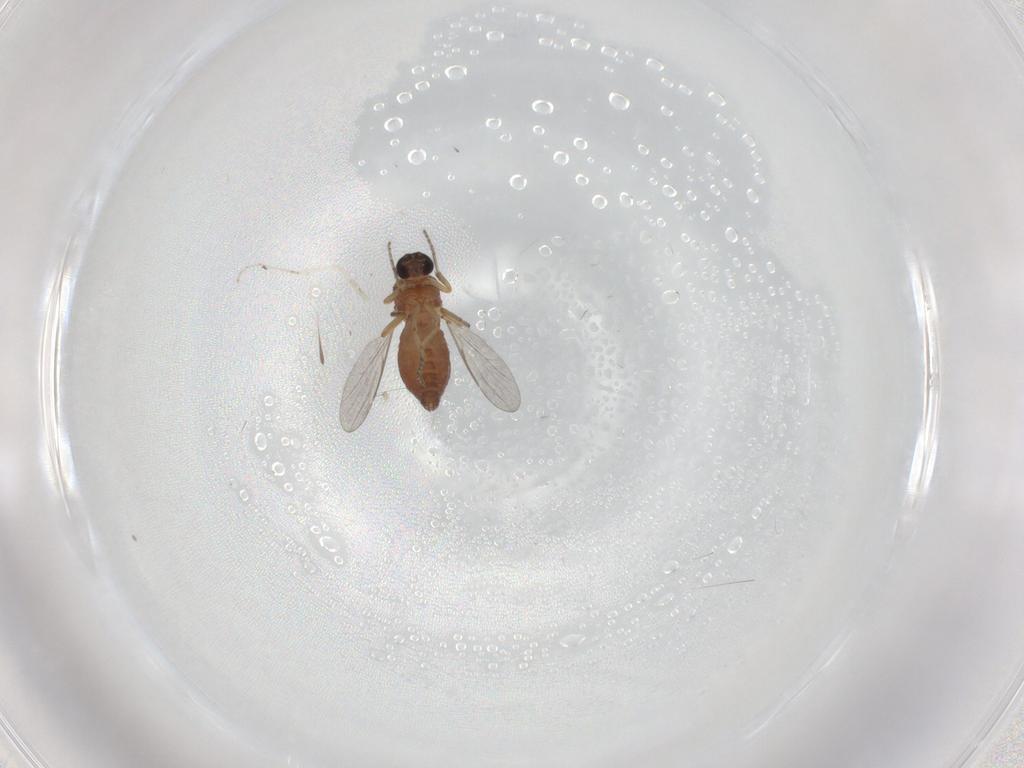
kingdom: Animalia
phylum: Arthropoda
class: Insecta
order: Diptera
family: Ceratopogonidae
